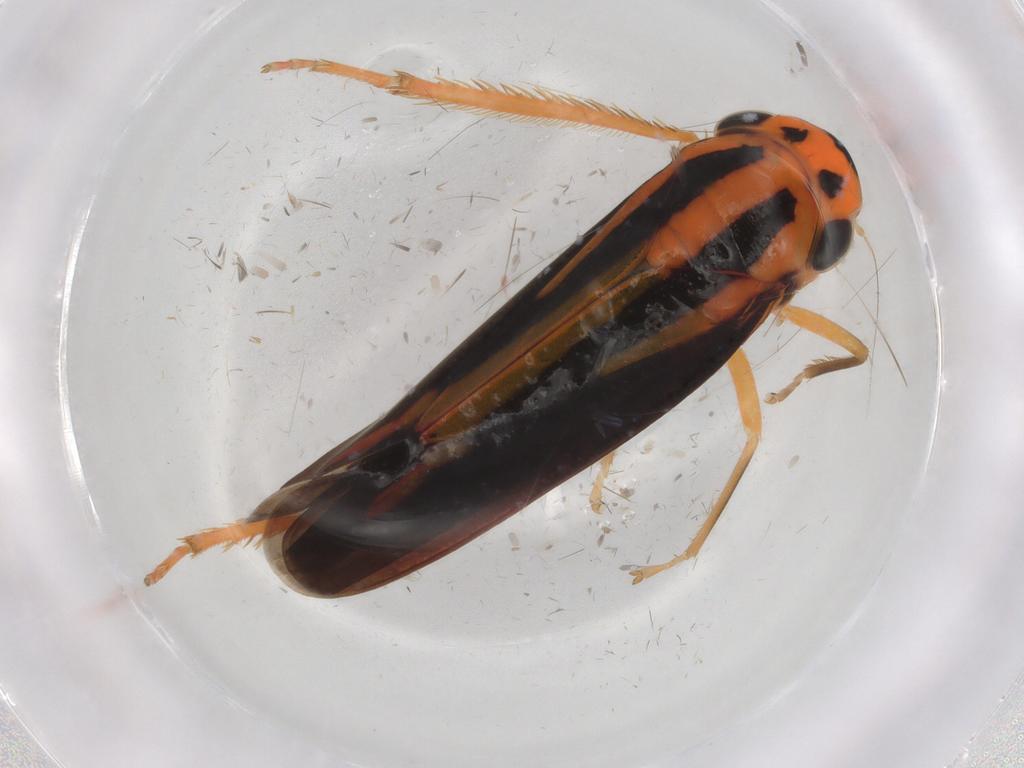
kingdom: Animalia
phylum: Arthropoda
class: Insecta
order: Hemiptera
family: Cicadellidae
